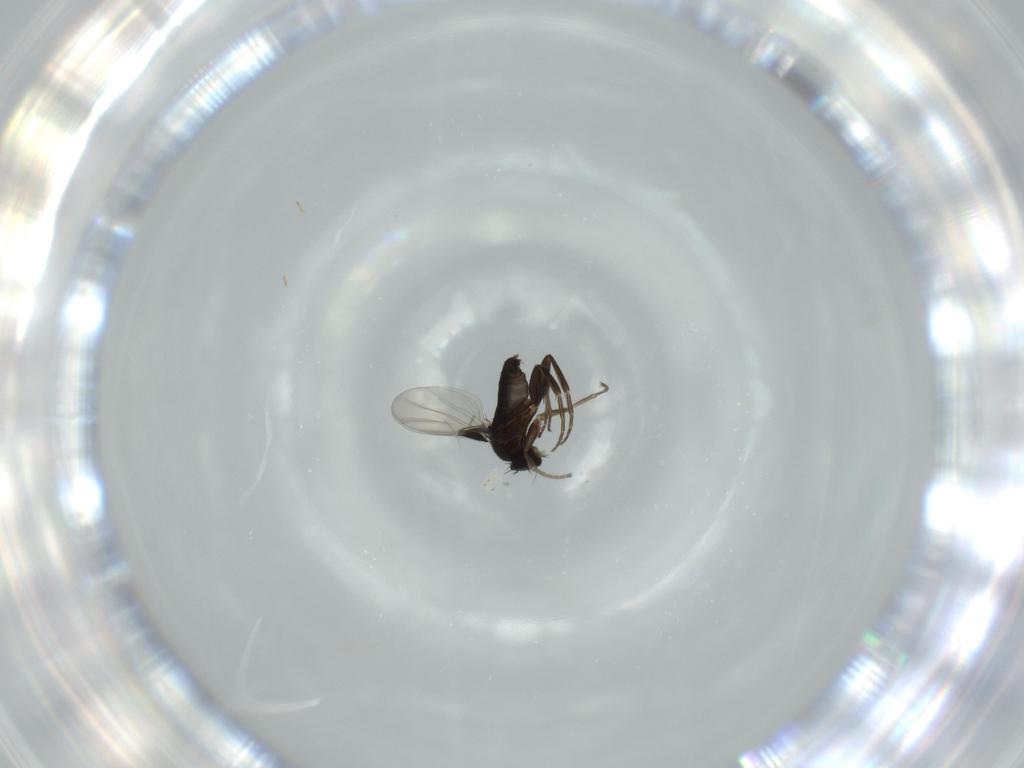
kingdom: Animalia
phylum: Arthropoda
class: Insecta
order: Diptera
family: Phoridae
